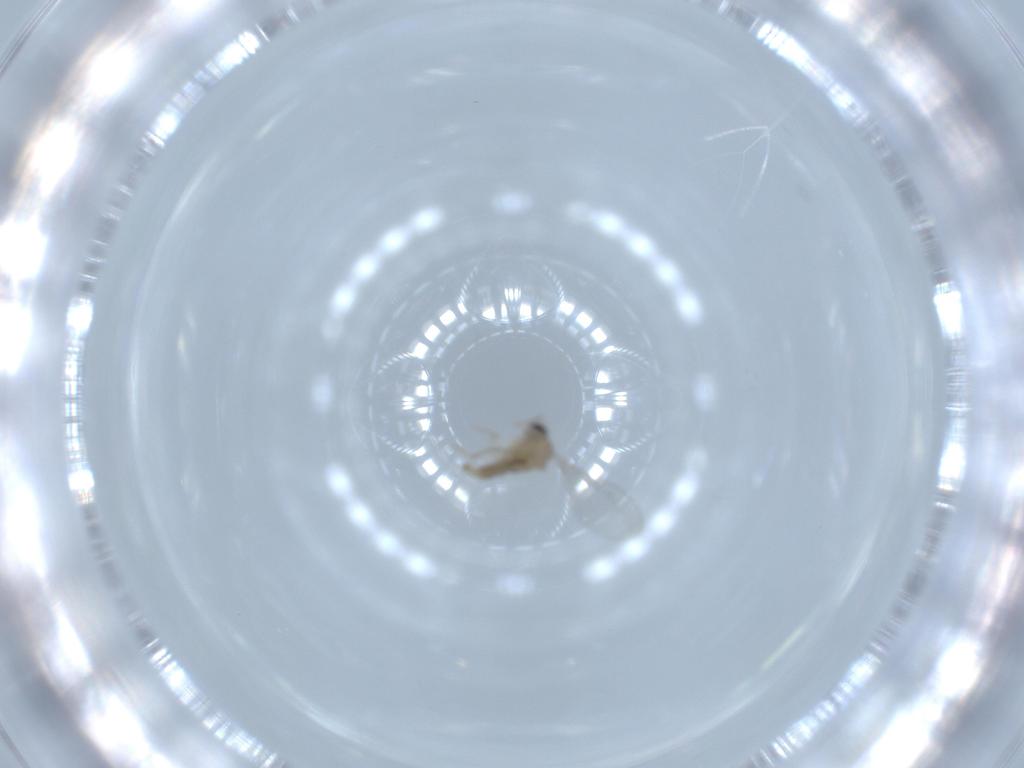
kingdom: Animalia
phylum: Arthropoda
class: Insecta
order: Diptera
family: Cecidomyiidae
